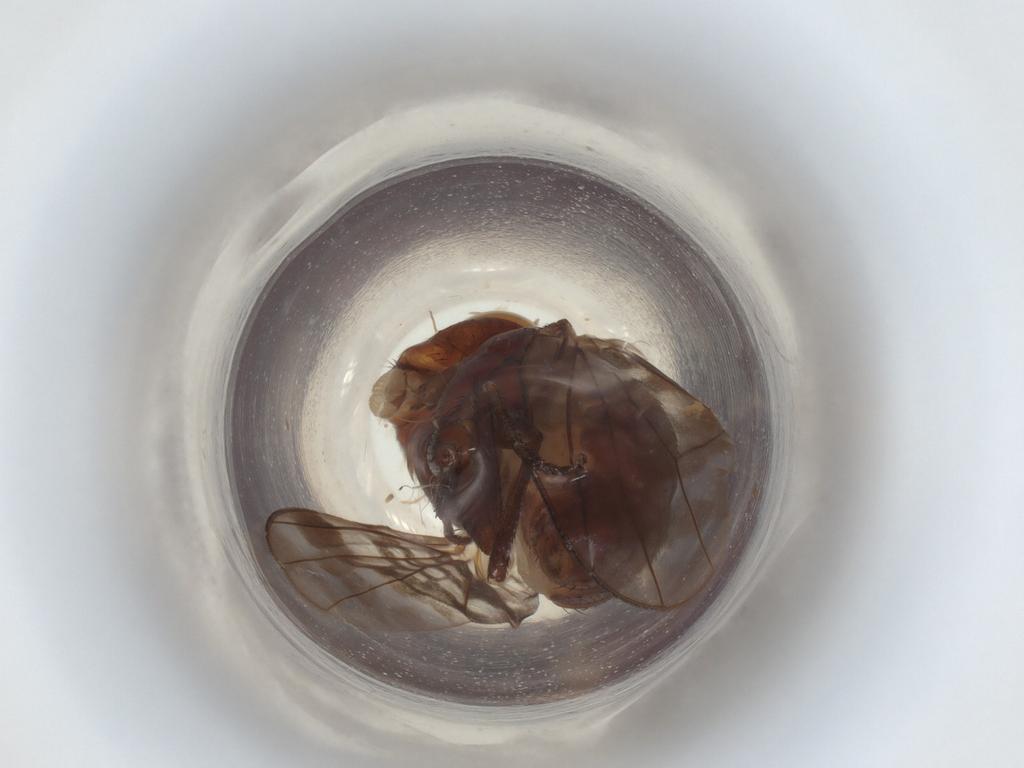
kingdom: Animalia
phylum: Arthropoda
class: Insecta
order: Diptera
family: Chironomidae
